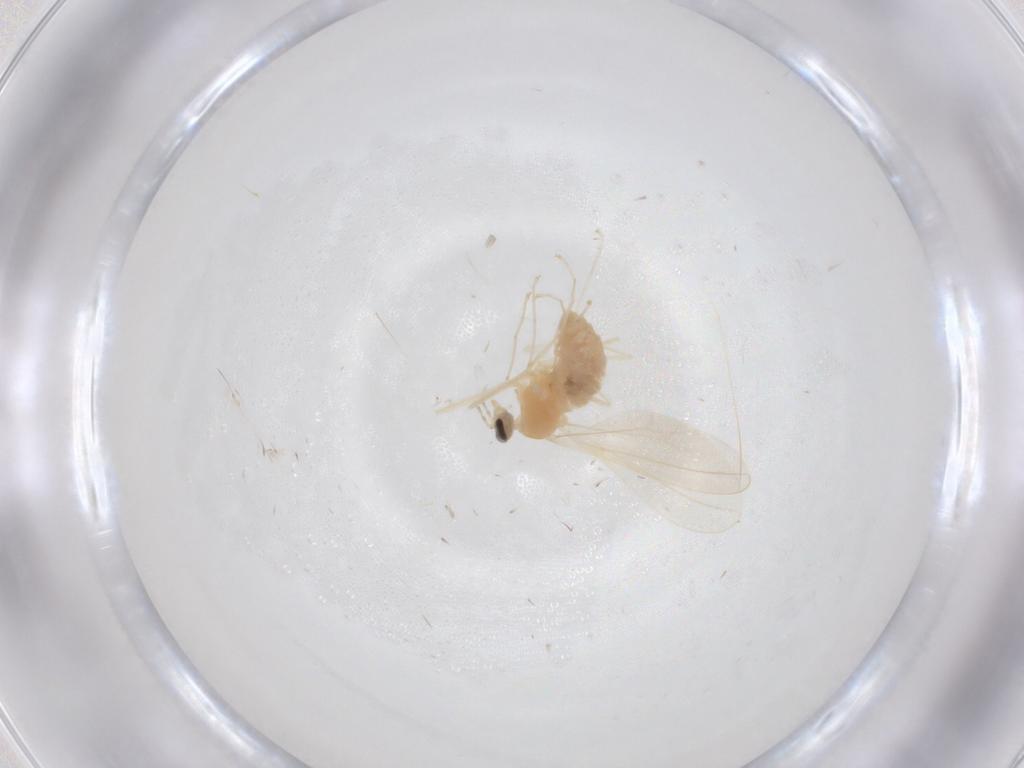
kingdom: Animalia
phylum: Arthropoda
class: Insecta
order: Diptera
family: Cecidomyiidae
